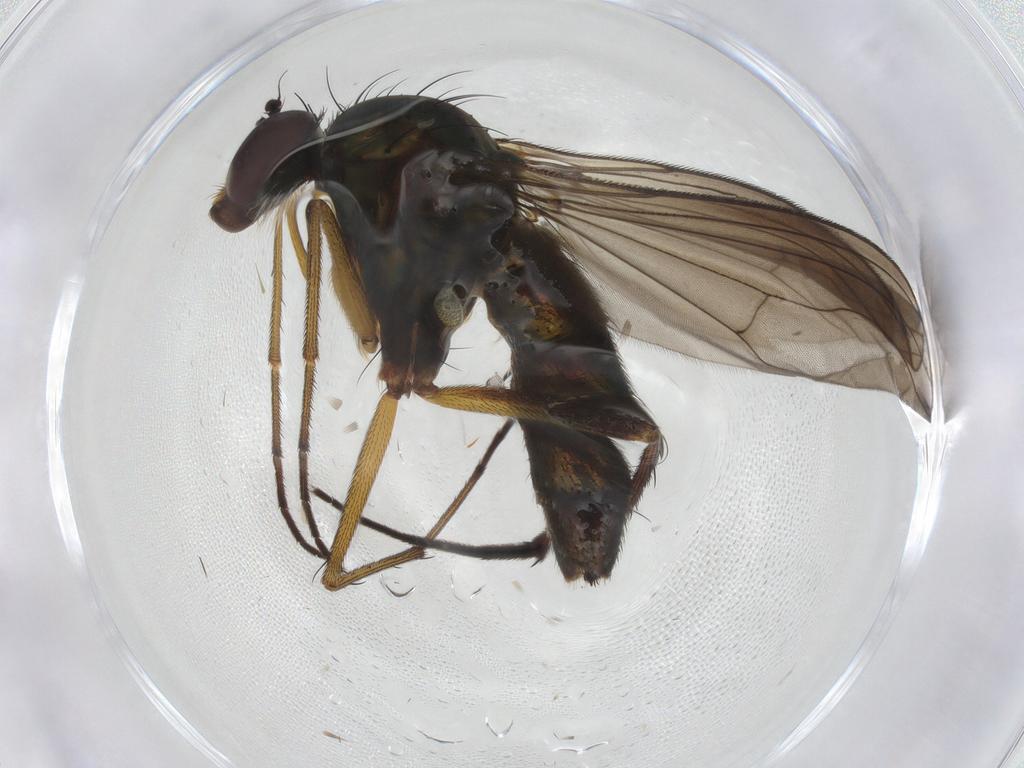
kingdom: Animalia
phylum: Arthropoda
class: Insecta
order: Diptera
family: Dolichopodidae
